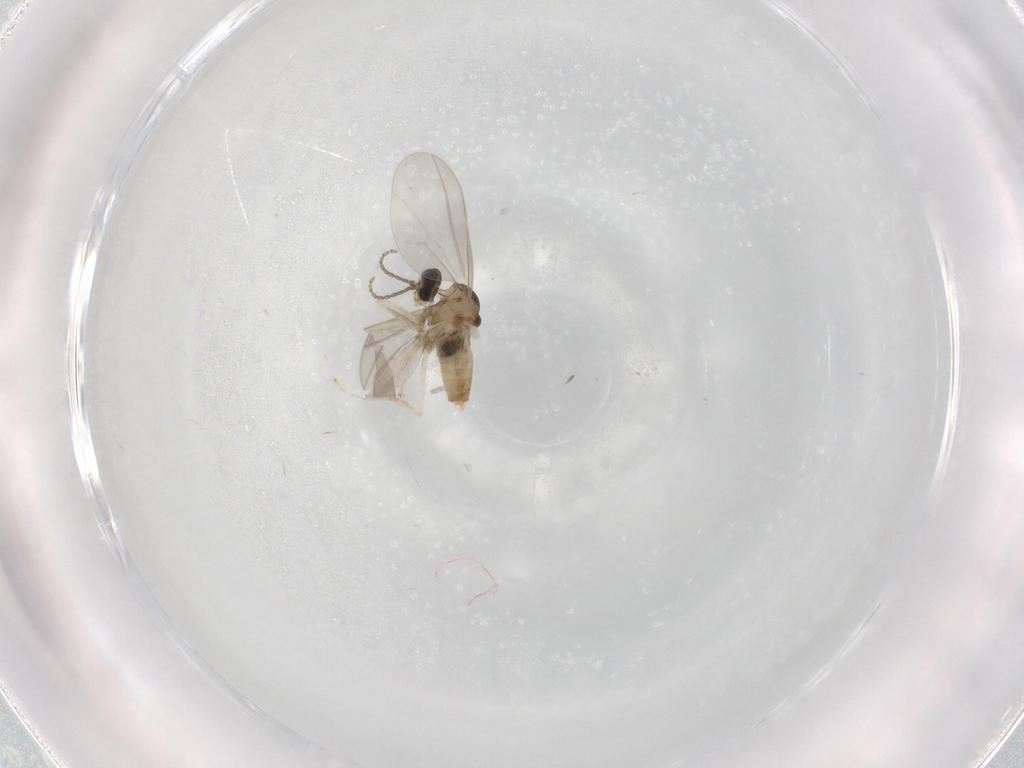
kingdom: Animalia
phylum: Arthropoda
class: Insecta
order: Diptera
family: Cecidomyiidae
